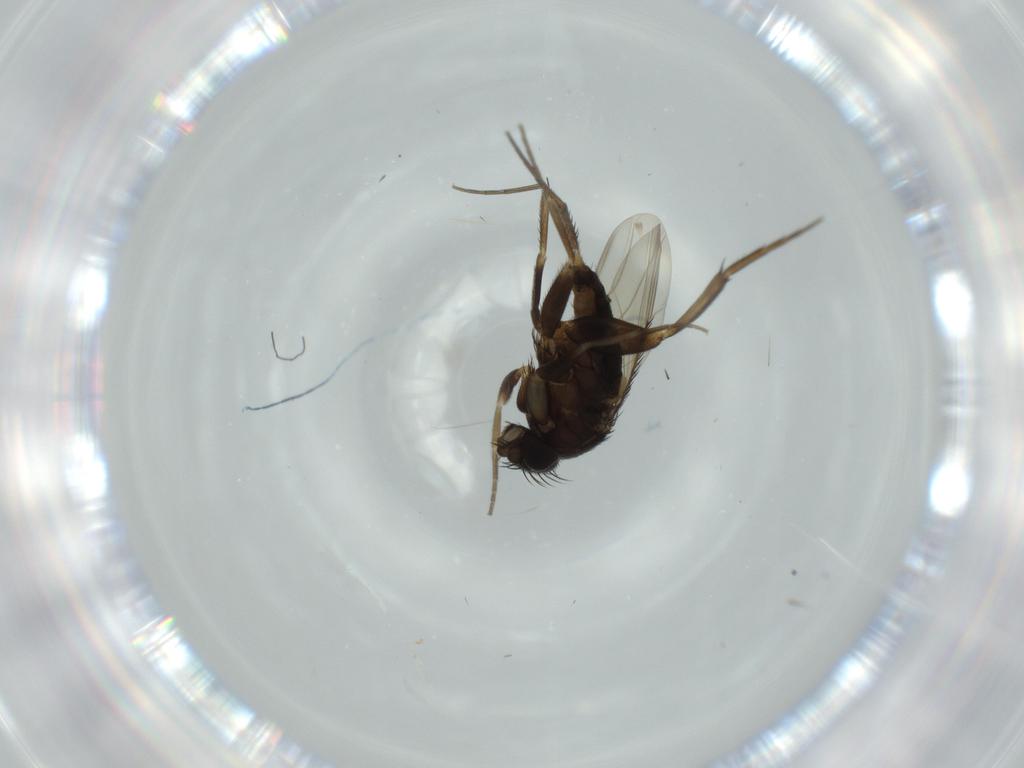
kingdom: Animalia
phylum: Arthropoda
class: Insecta
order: Diptera
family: Phoridae
